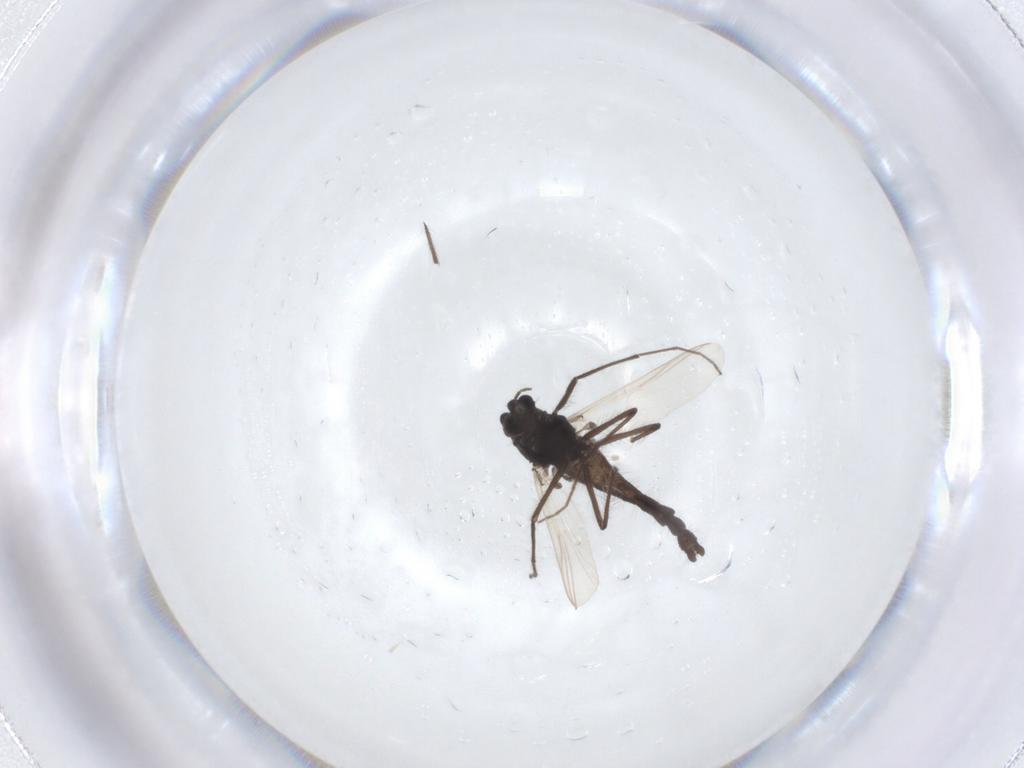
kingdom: Animalia
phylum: Arthropoda
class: Insecta
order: Diptera
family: Chironomidae
